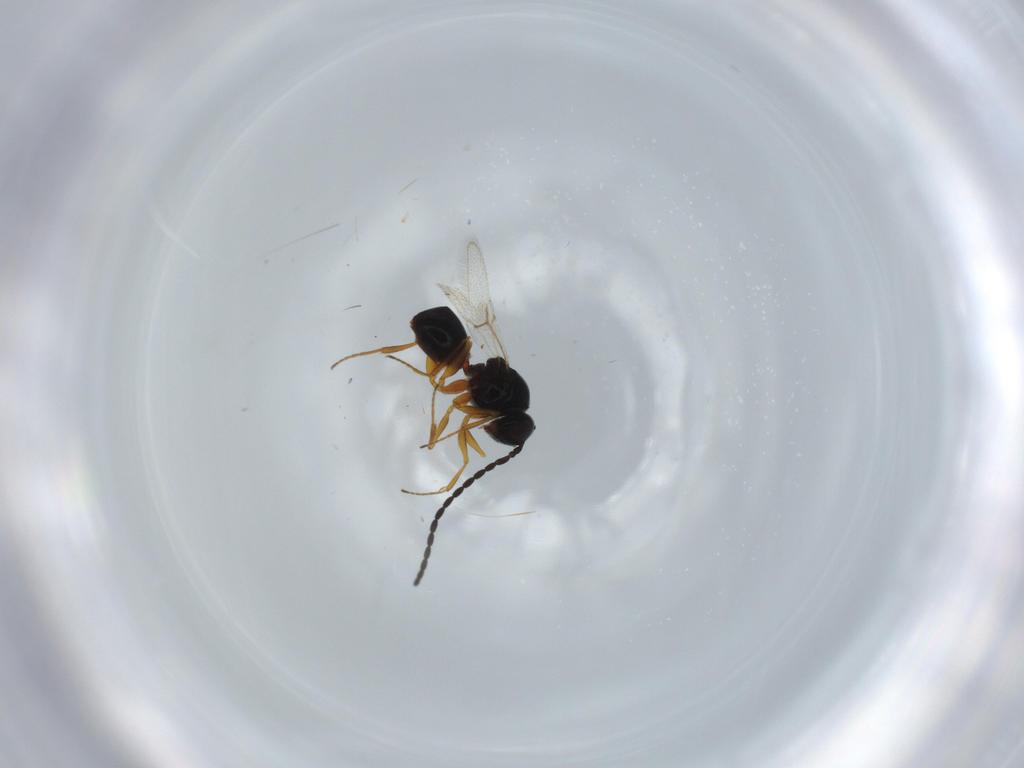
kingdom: Animalia
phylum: Arthropoda
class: Insecta
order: Hymenoptera
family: Figitidae
